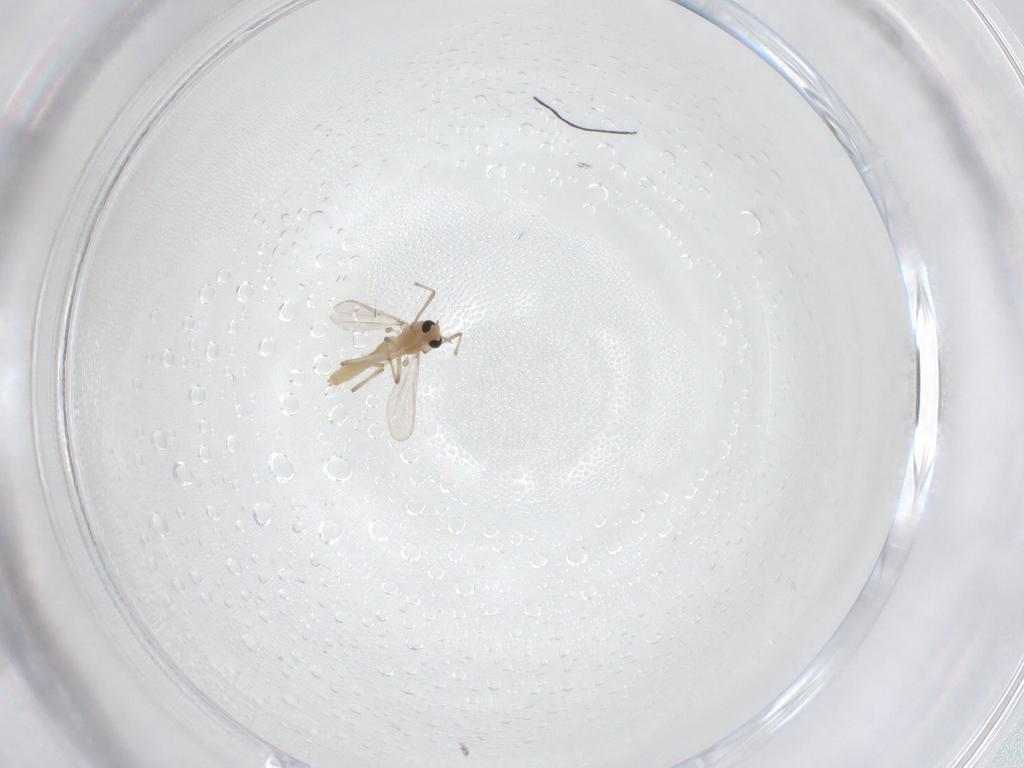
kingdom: Animalia
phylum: Arthropoda
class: Insecta
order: Diptera
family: Chironomidae
